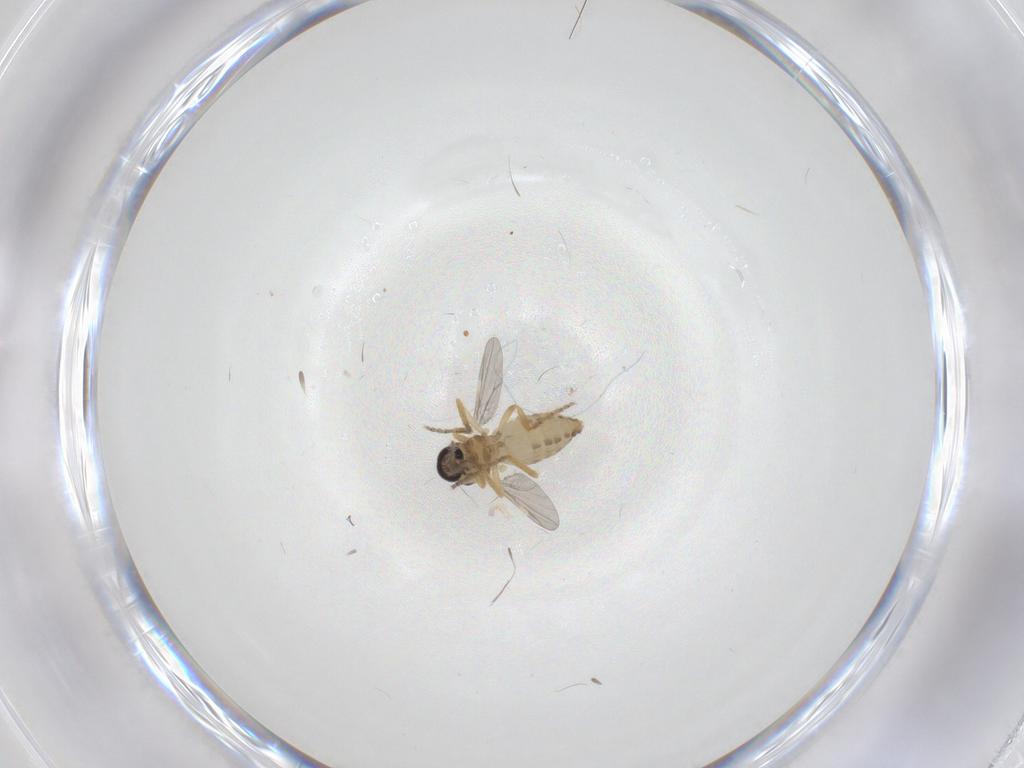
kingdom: Animalia
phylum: Arthropoda
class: Insecta
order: Diptera
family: Ceratopogonidae
